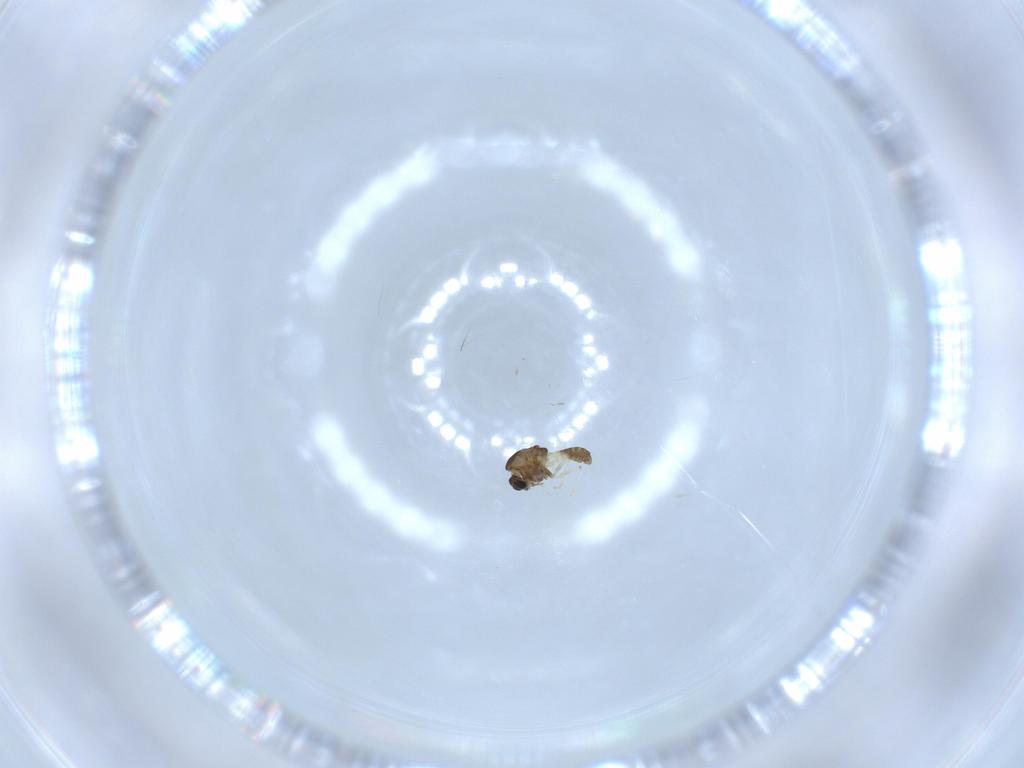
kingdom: Animalia
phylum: Arthropoda
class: Insecta
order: Diptera
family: Chironomidae
